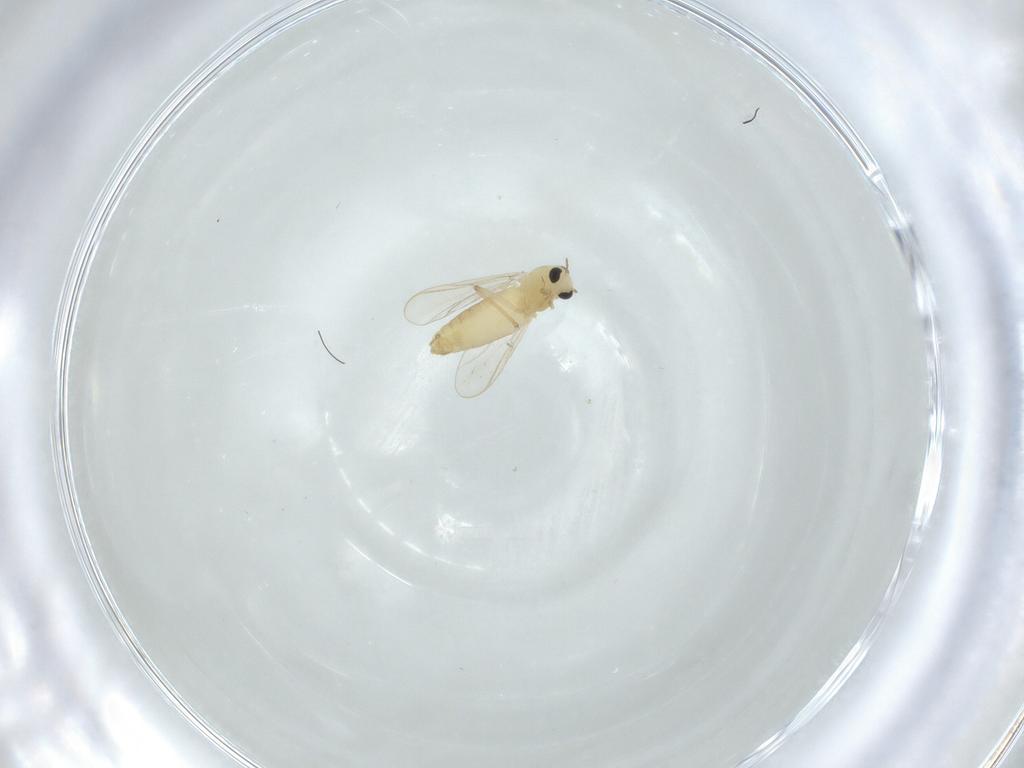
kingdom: Animalia
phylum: Arthropoda
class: Insecta
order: Diptera
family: Chironomidae
